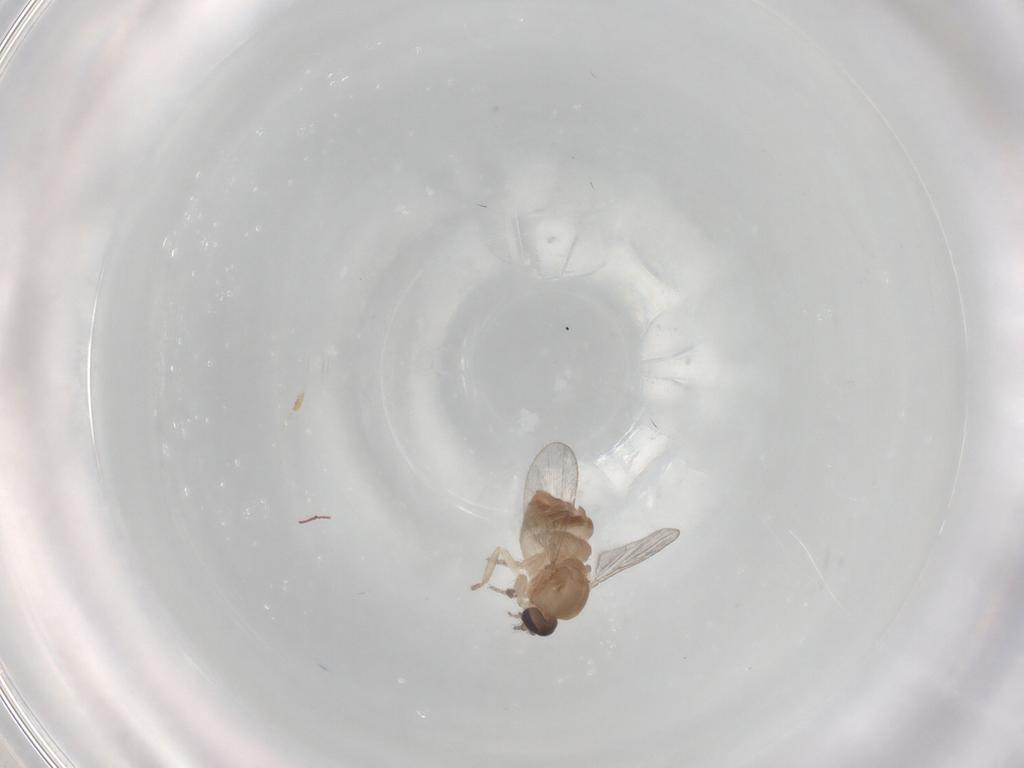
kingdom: Animalia
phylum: Arthropoda
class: Insecta
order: Diptera
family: Ceratopogonidae
